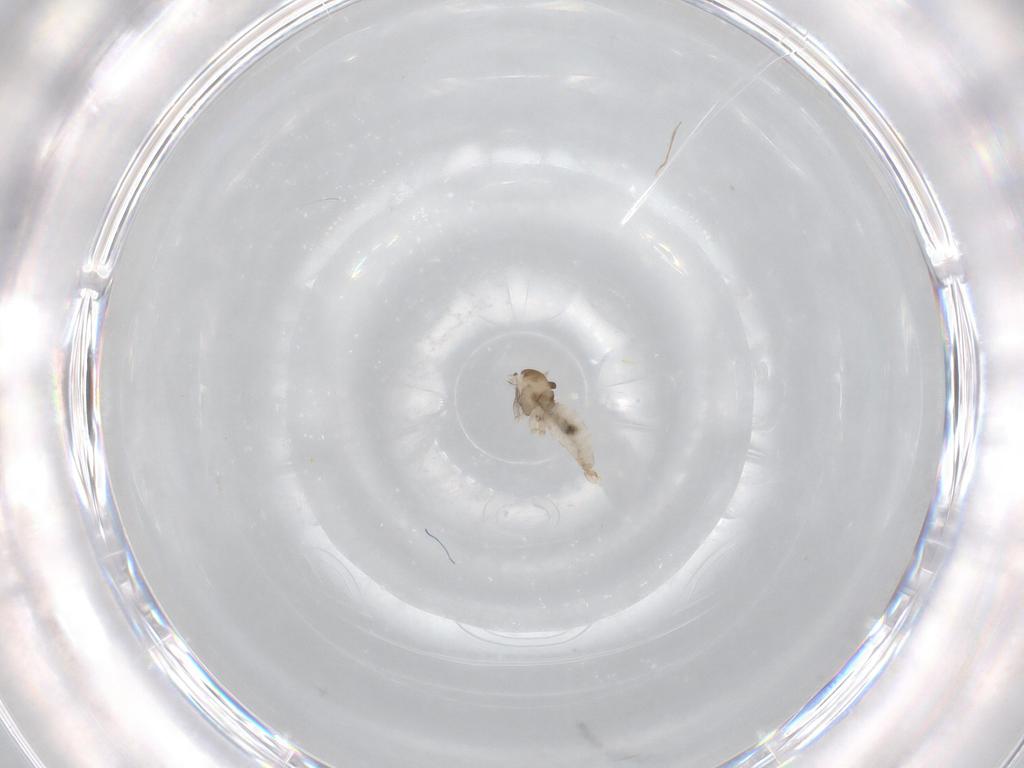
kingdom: Animalia
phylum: Arthropoda
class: Insecta
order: Diptera
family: Cecidomyiidae
